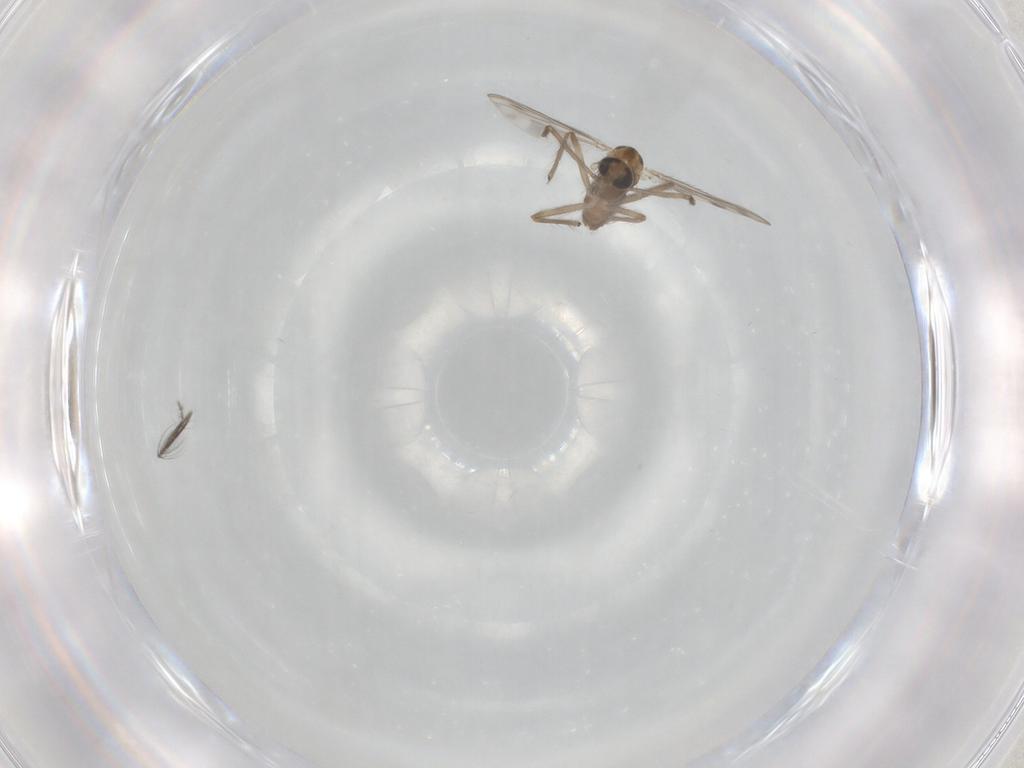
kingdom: Animalia
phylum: Arthropoda
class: Insecta
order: Diptera
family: Chironomidae
